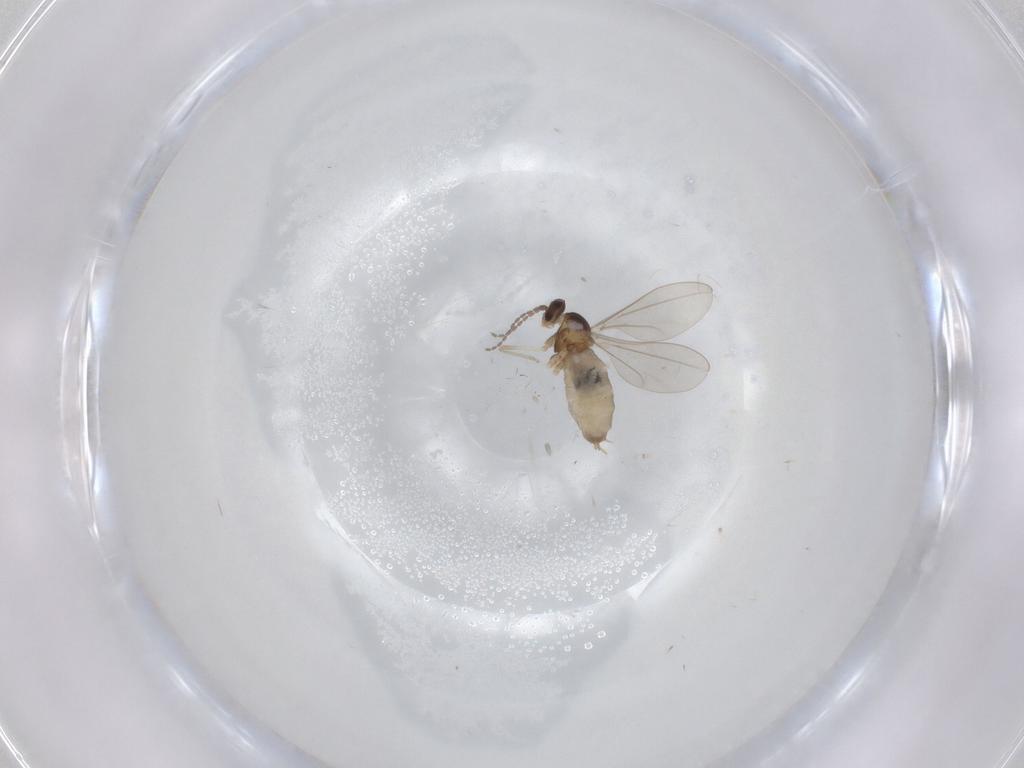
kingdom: Animalia
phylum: Arthropoda
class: Insecta
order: Diptera
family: Cecidomyiidae
